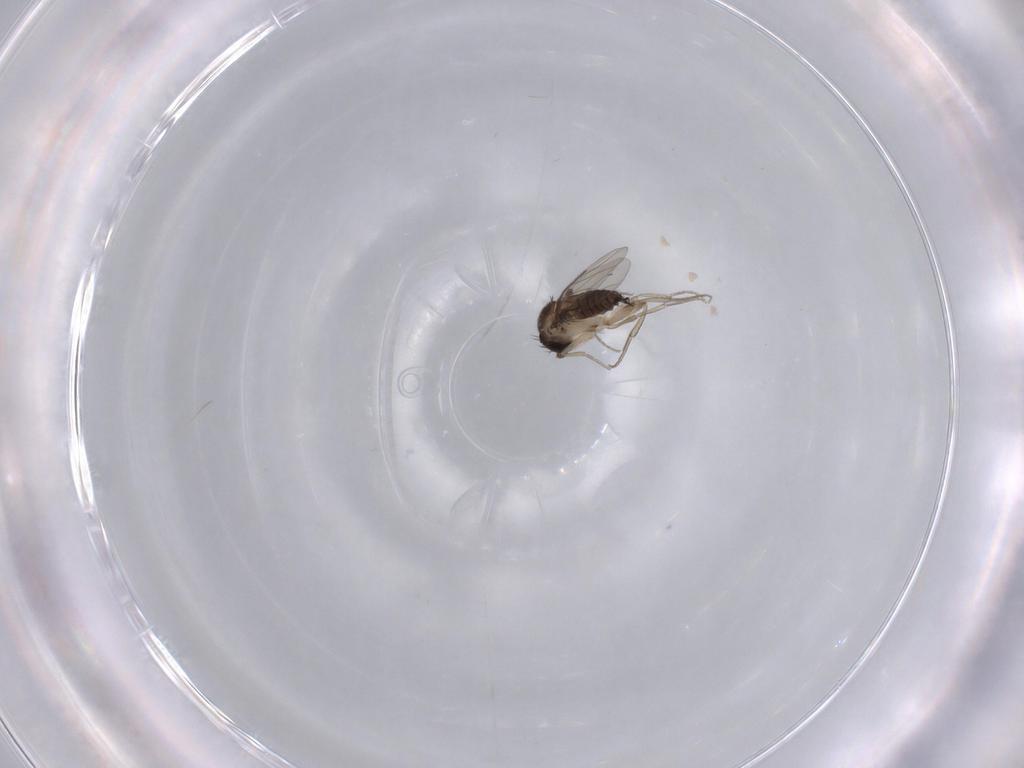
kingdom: Animalia
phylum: Arthropoda
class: Insecta
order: Diptera
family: Phoridae
